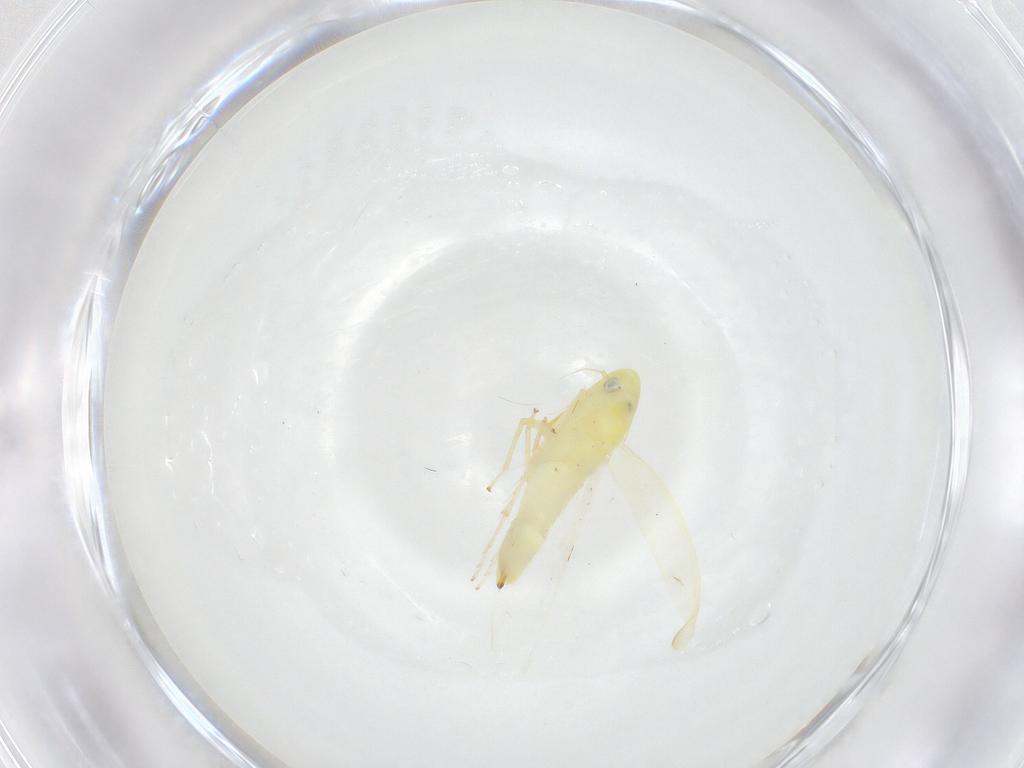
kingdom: Animalia
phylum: Arthropoda
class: Insecta
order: Hemiptera
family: Cicadellidae
